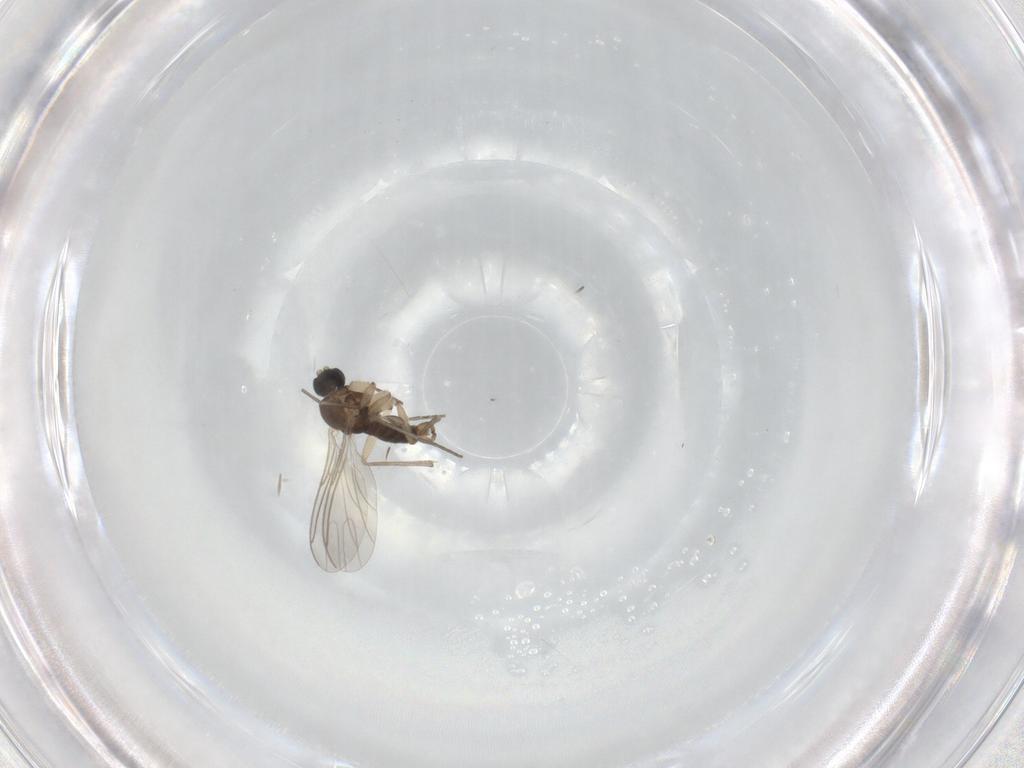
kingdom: Animalia
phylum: Arthropoda
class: Insecta
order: Diptera
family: Sciaridae
